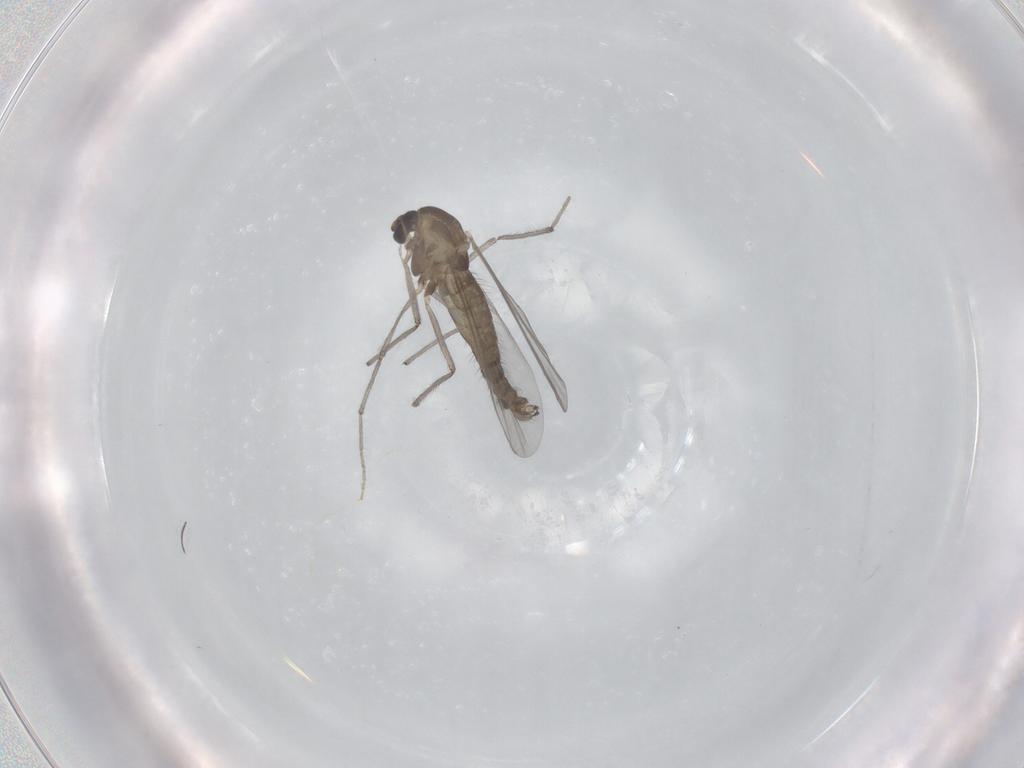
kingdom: Animalia
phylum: Arthropoda
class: Insecta
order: Diptera
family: Chironomidae
